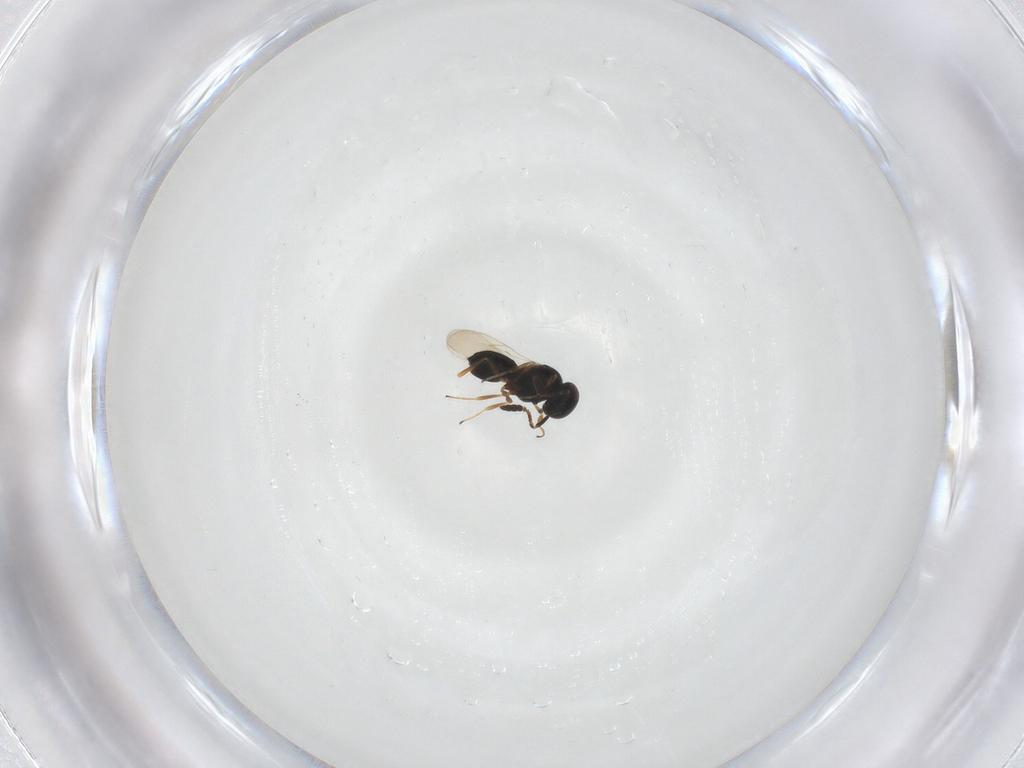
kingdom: Animalia
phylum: Arthropoda
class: Insecta
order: Hymenoptera
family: Scelionidae
